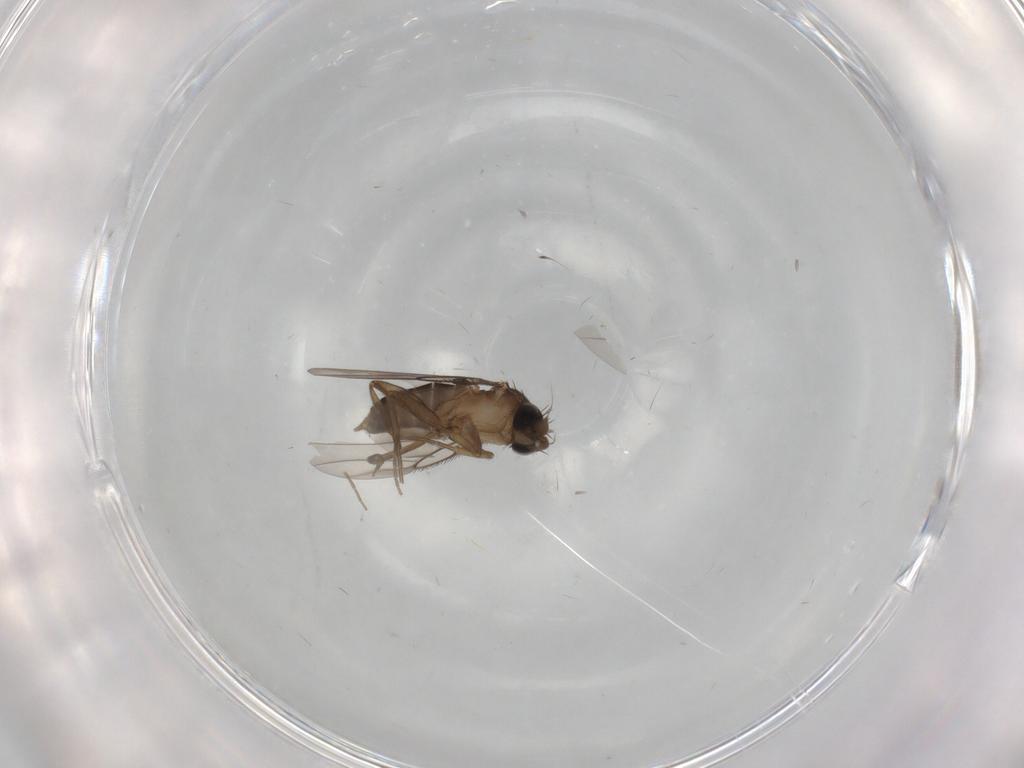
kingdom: Animalia
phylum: Arthropoda
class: Insecta
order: Diptera
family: Phoridae
